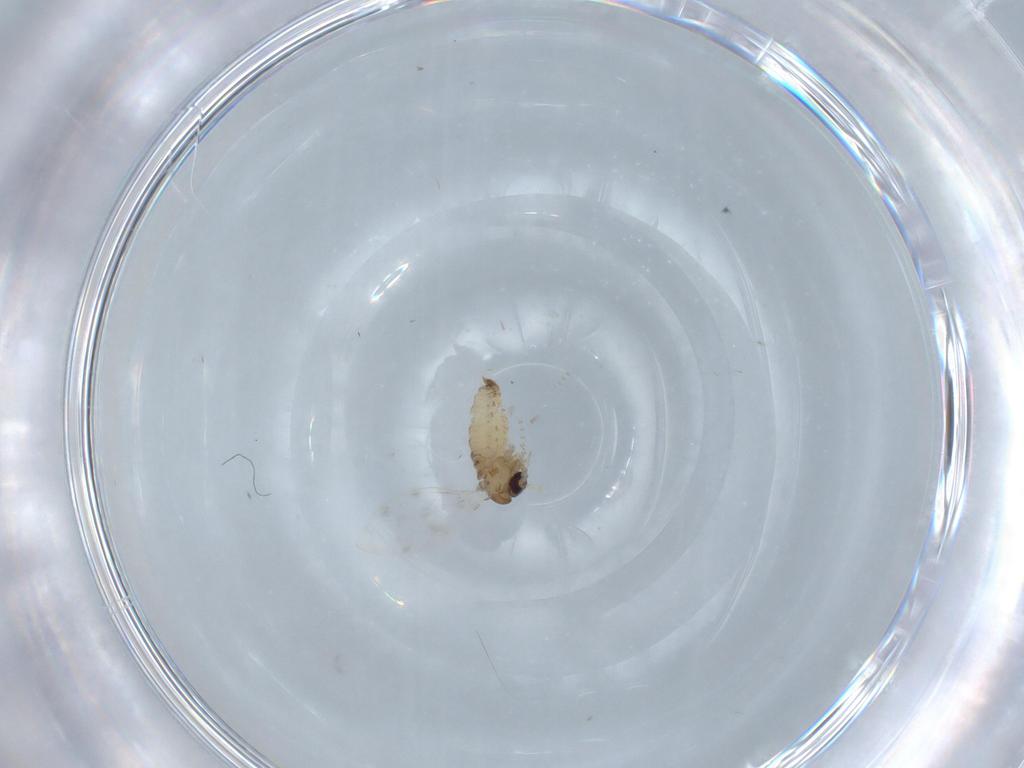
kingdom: Animalia
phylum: Arthropoda
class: Insecta
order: Diptera
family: Psychodidae
